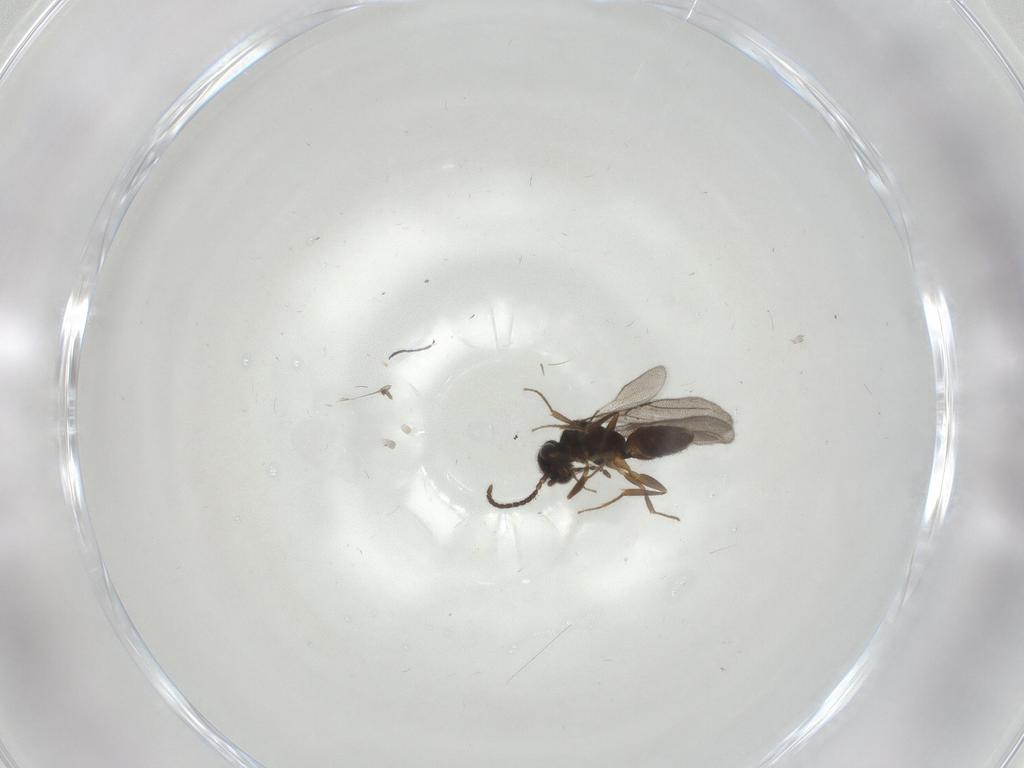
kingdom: Animalia
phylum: Arthropoda
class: Insecta
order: Hymenoptera
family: Bethylidae
